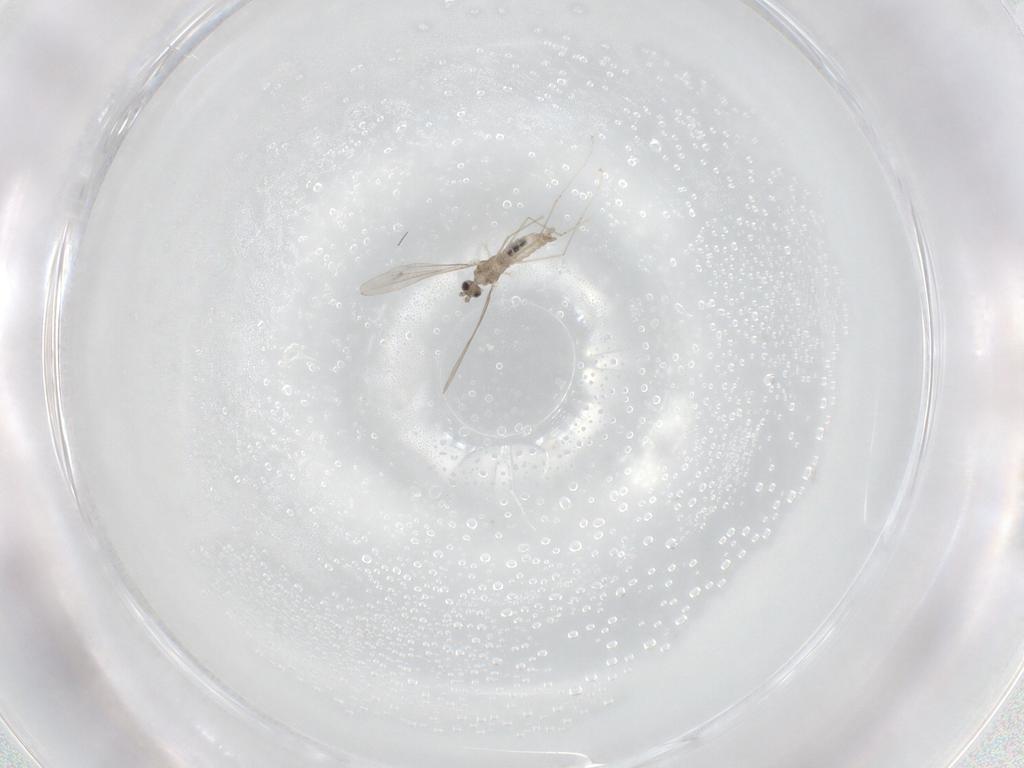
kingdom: Animalia
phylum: Arthropoda
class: Insecta
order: Diptera
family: Cecidomyiidae
